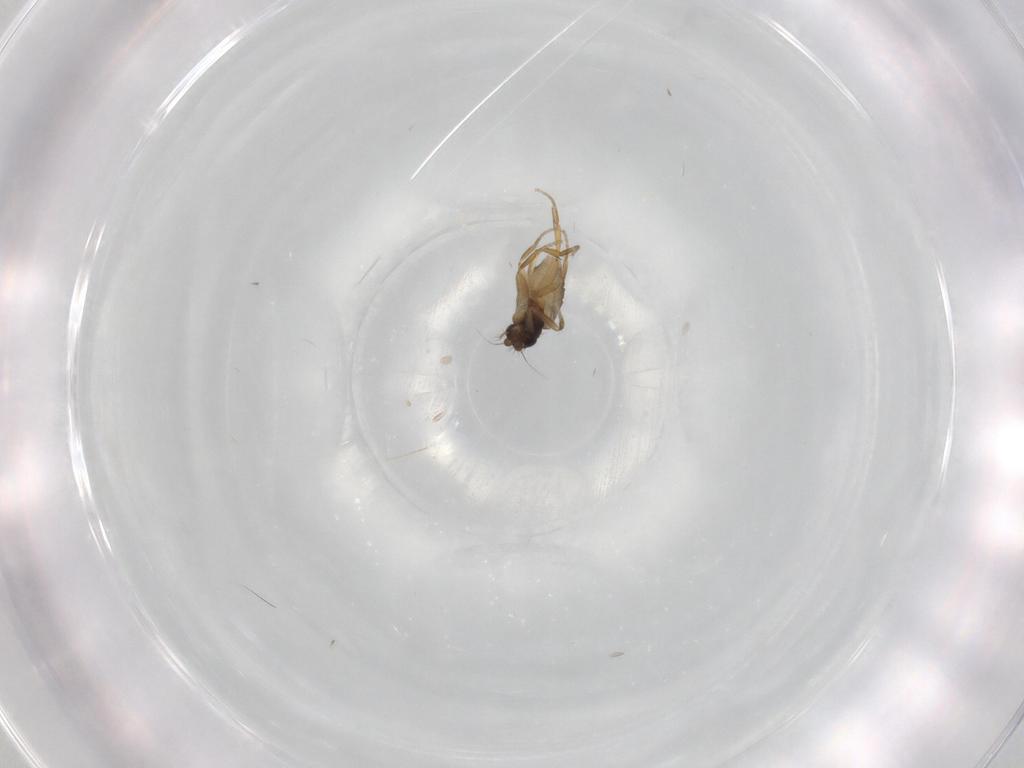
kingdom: Animalia
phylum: Arthropoda
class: Insecta
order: Diptera
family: Phoridae
